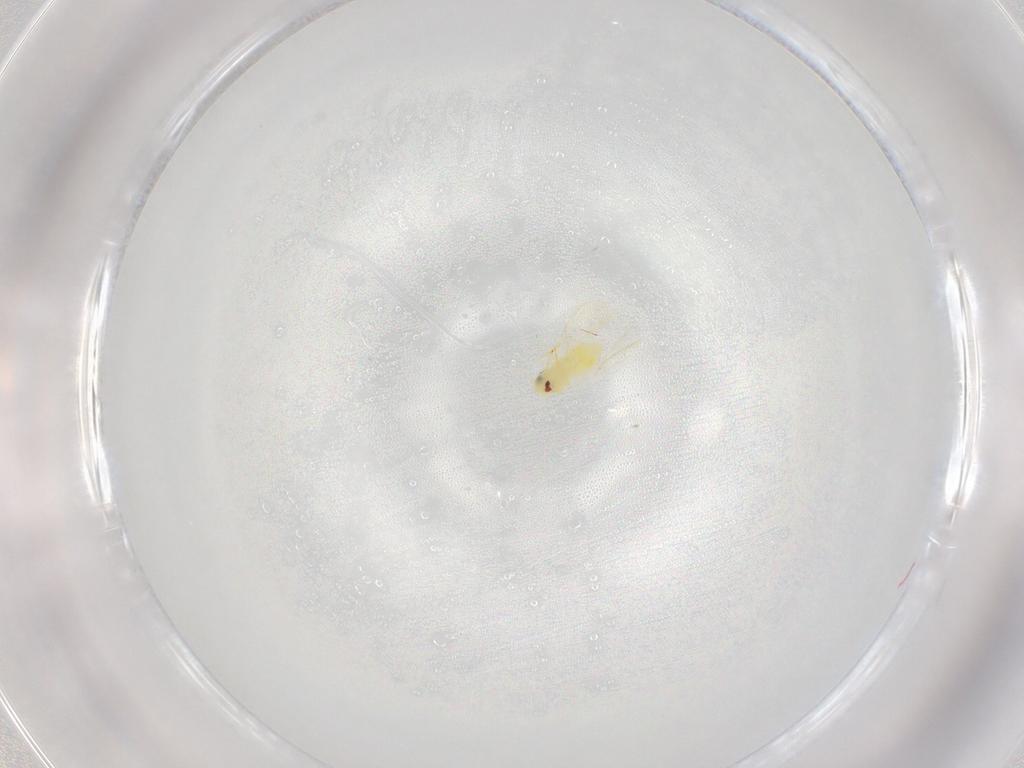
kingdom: Animalia
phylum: Arthropoda
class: Insecta
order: Hemiptera
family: Aleyrodidae
